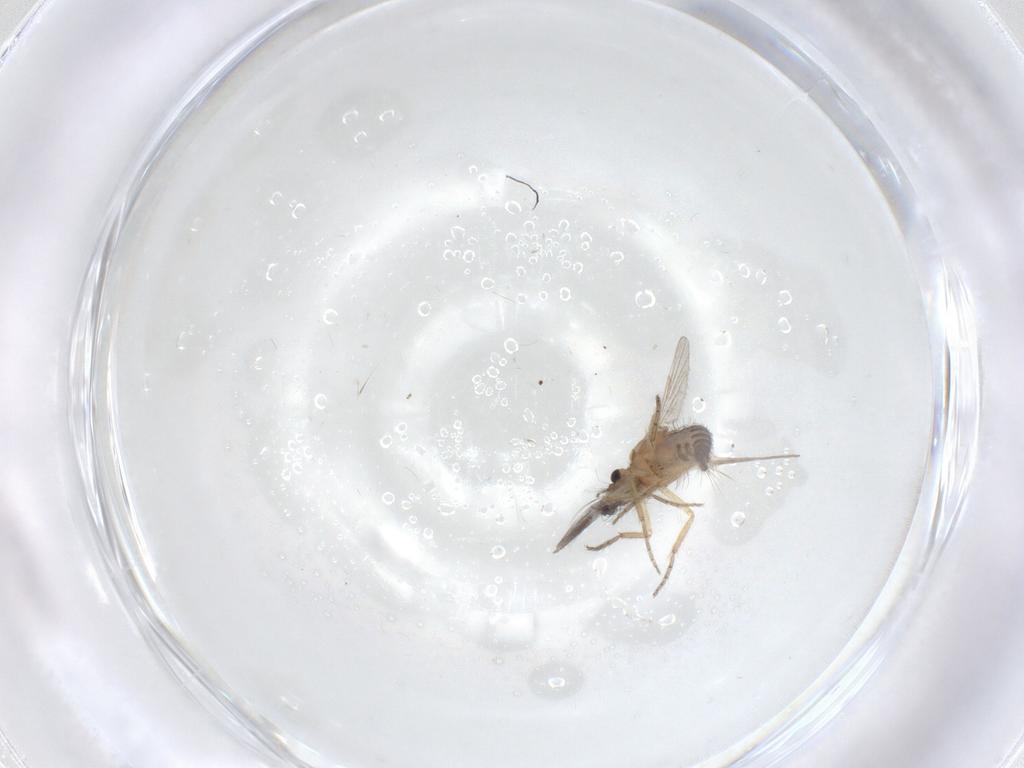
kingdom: Animalia
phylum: Arthropoda
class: Insecta
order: Diptera
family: Ceratopogonidae
